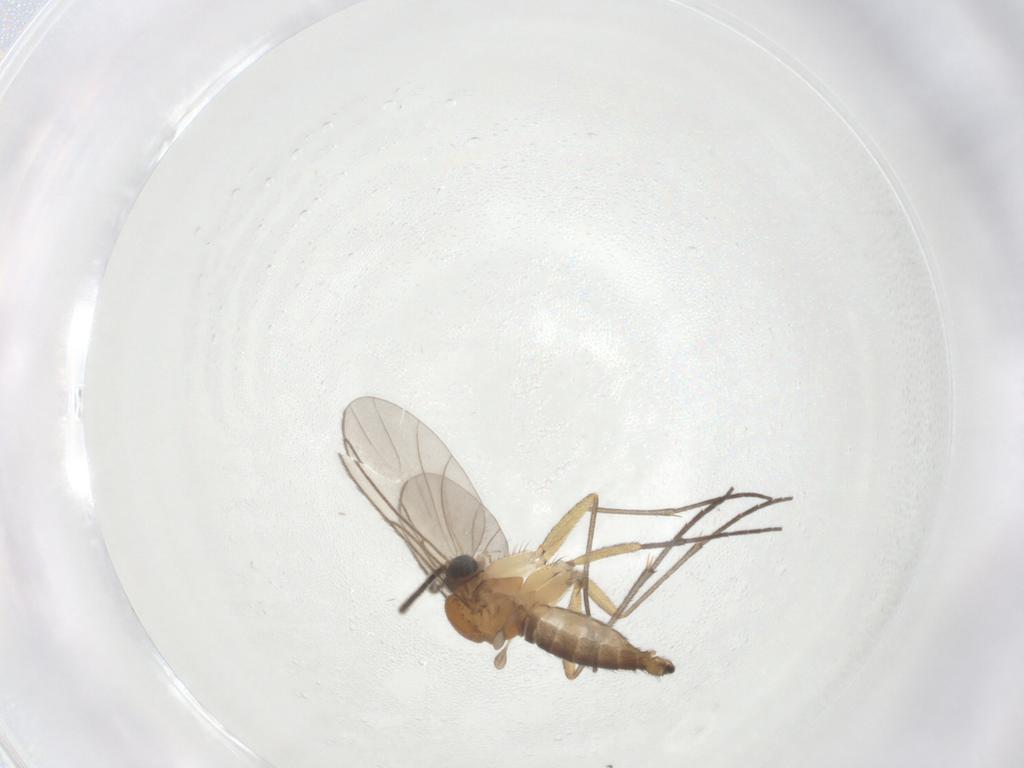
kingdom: Animalia
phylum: Arthropoda
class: Insecta
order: Diptera
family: Sciaridae
